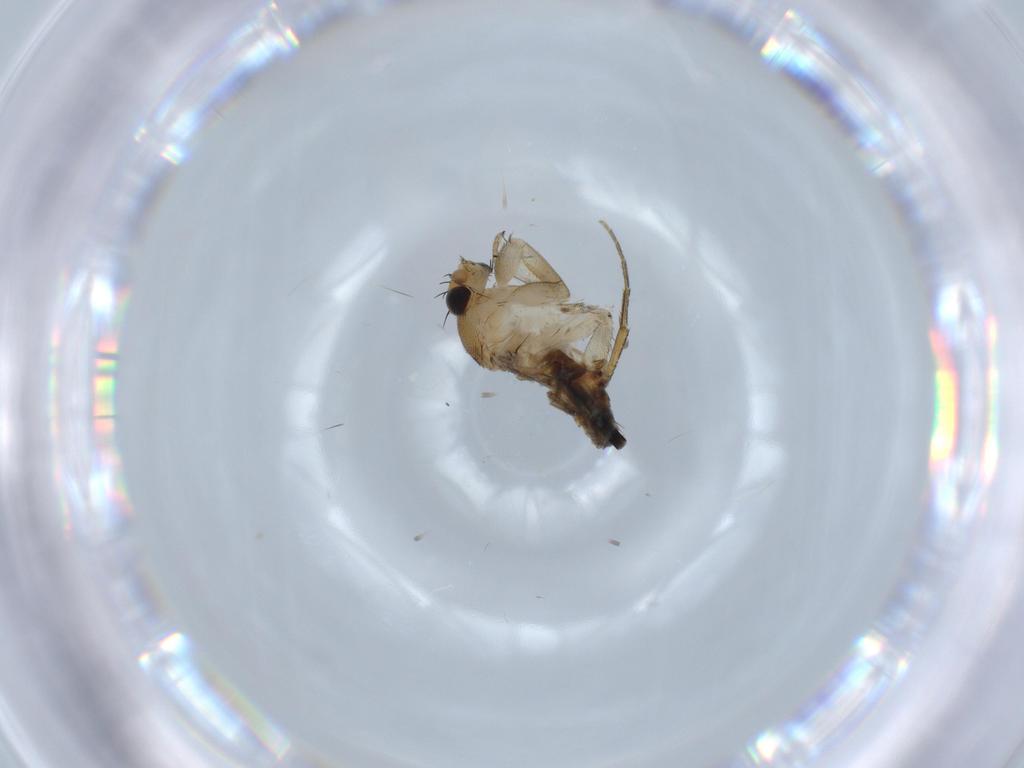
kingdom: Animalia
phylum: Arthropoda
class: Insecta
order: Diptera
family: Phoridae
